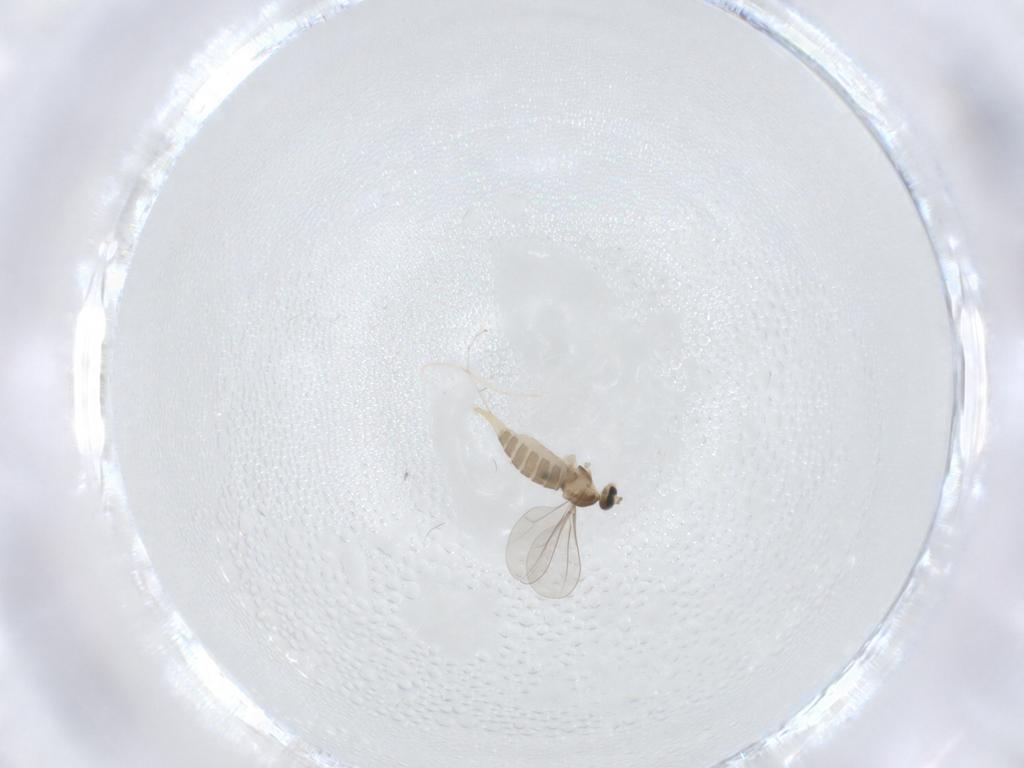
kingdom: Animalia
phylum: Arthropoda
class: Insecta
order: Diptera
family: Cecidomyiidae
